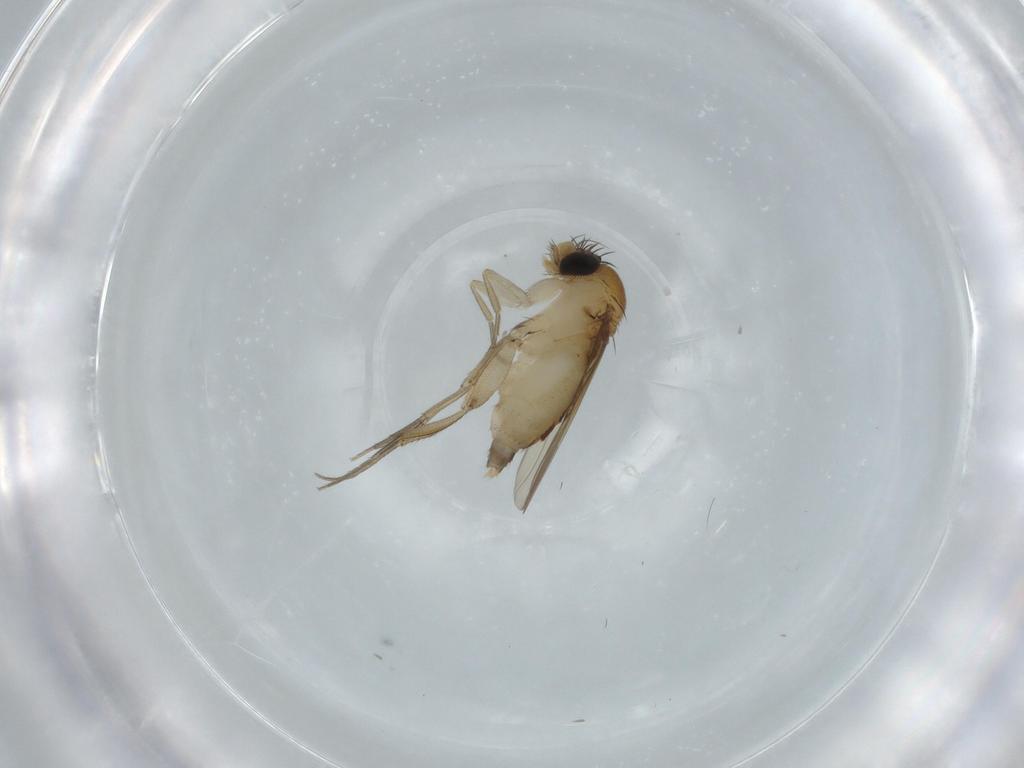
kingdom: Animalia
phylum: Arthropoda
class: Insecta
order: Diptera
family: Phoridae
